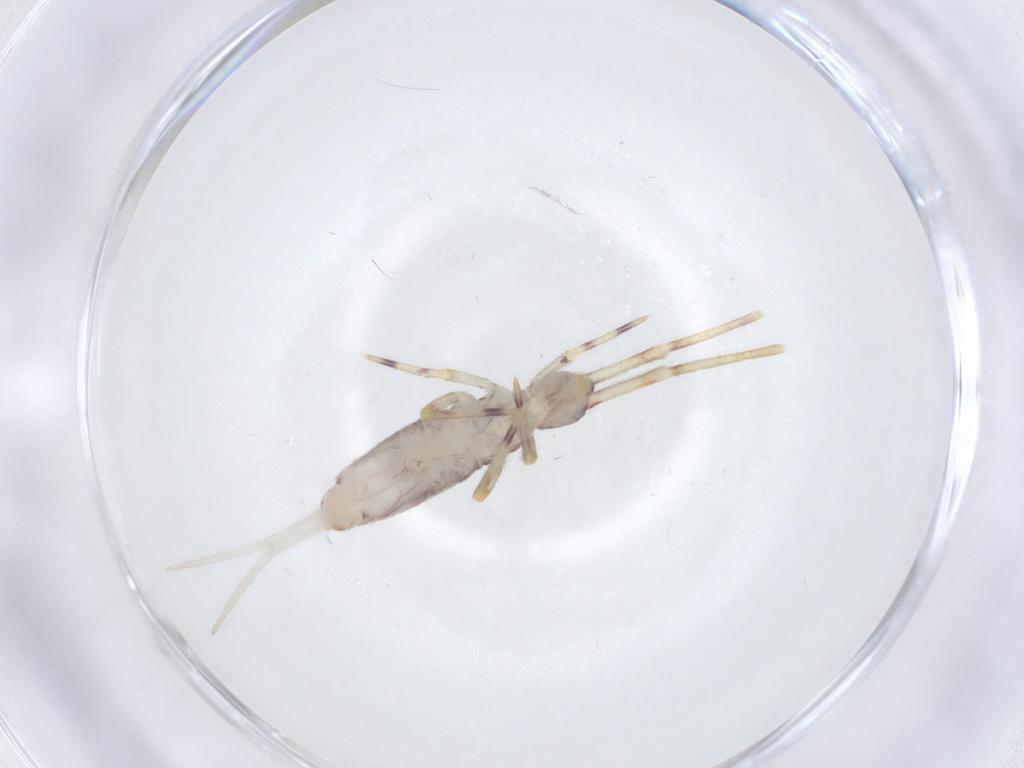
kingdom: Animalia
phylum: Arthropoda
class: Collembola
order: Entomobryomorpha
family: Entomobryidae
